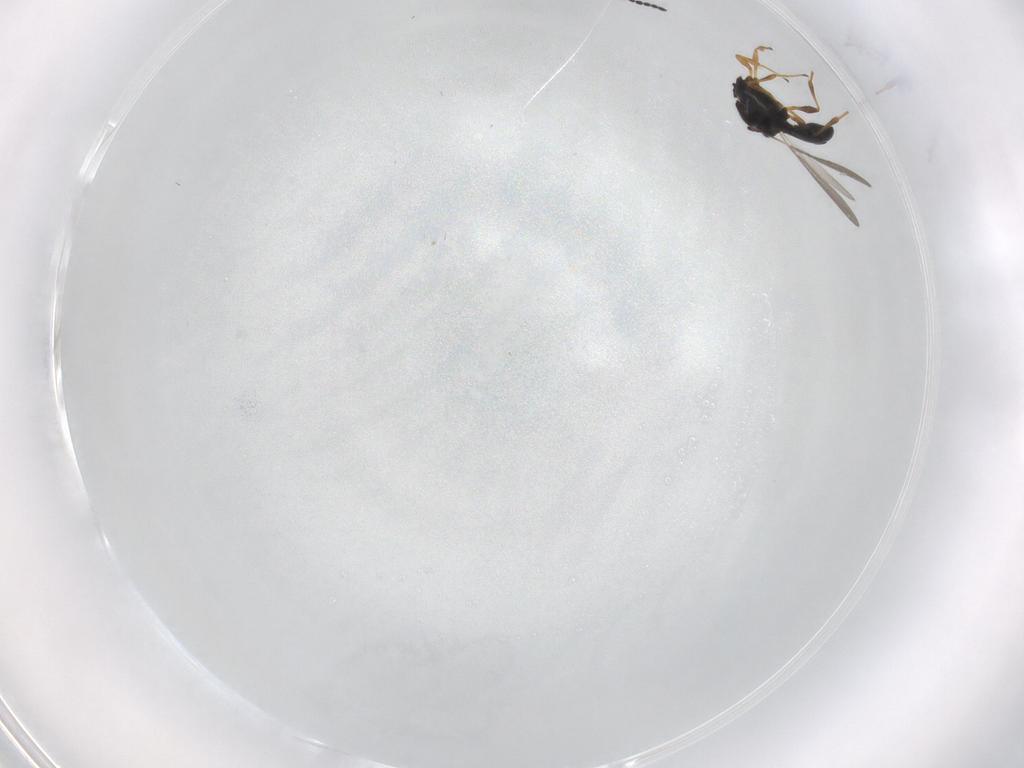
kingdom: Animalia
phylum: Arthropoda
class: Insecta
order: Hymenoptera
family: Platygastridae
